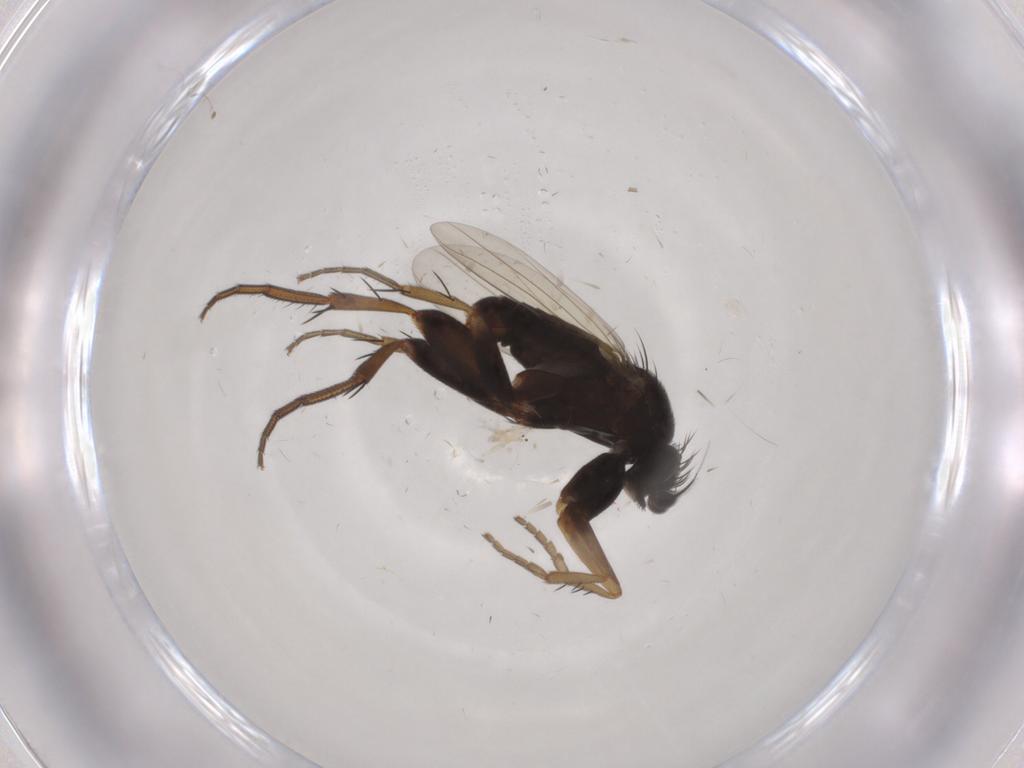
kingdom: Animalia
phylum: Arthropoda
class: Insecta
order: Diptera
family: Phoridae
